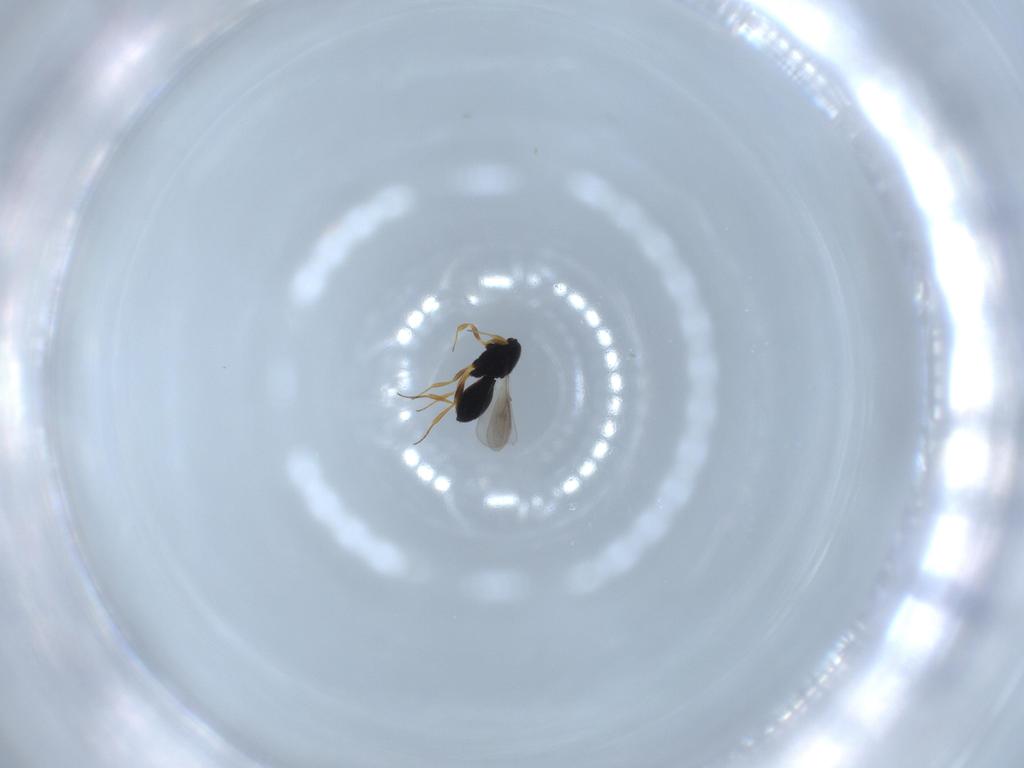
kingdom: Animalia
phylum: Arthropoda
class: Insecta
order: Hymenoptera
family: Scelionidae
